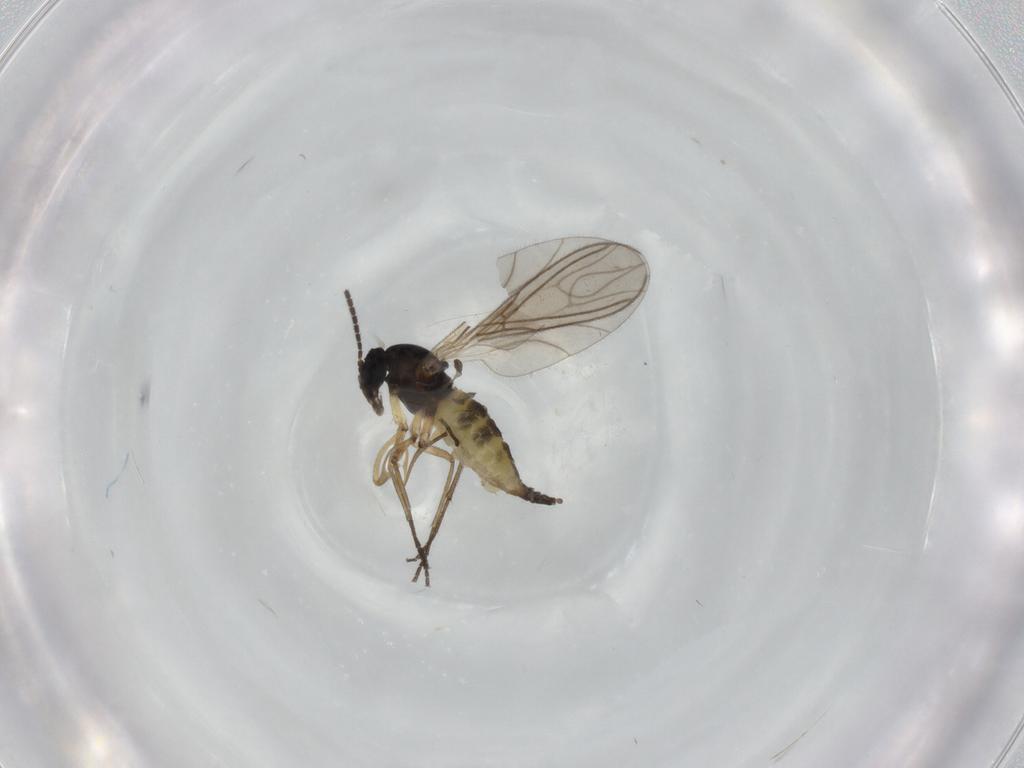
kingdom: Animalia
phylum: Arthropoda
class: Insecta
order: Diptera
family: Sciaridae
